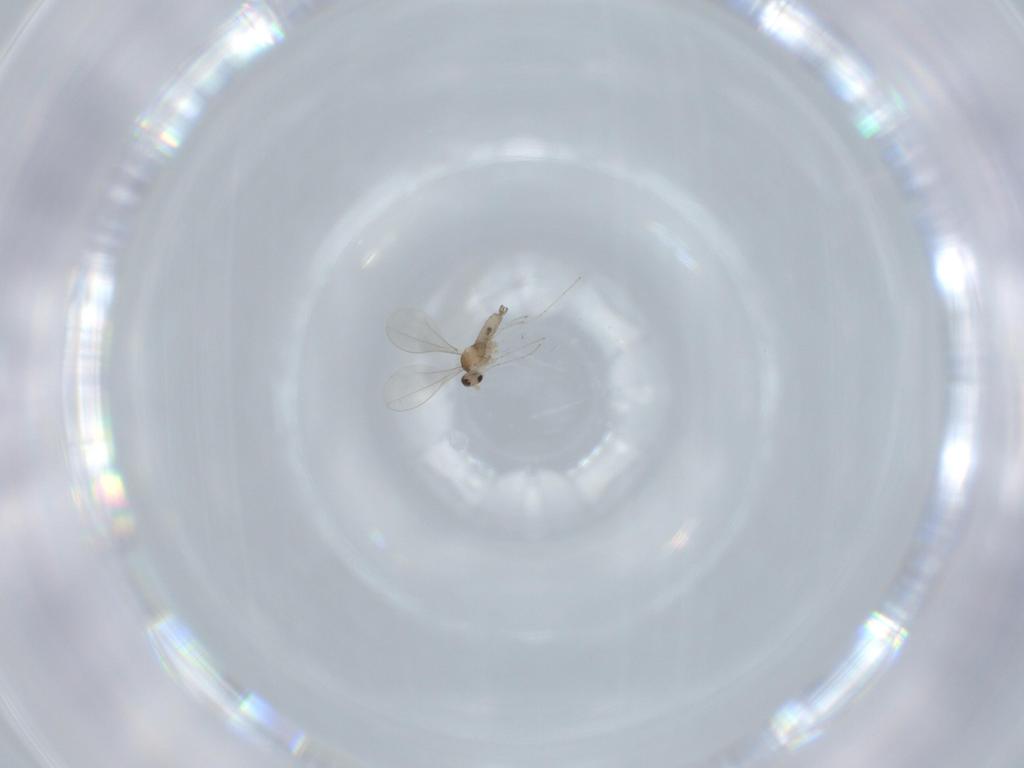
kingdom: Animalia
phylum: Arthropoda
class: Insecta
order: Diptera
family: Cecidomyiidae
